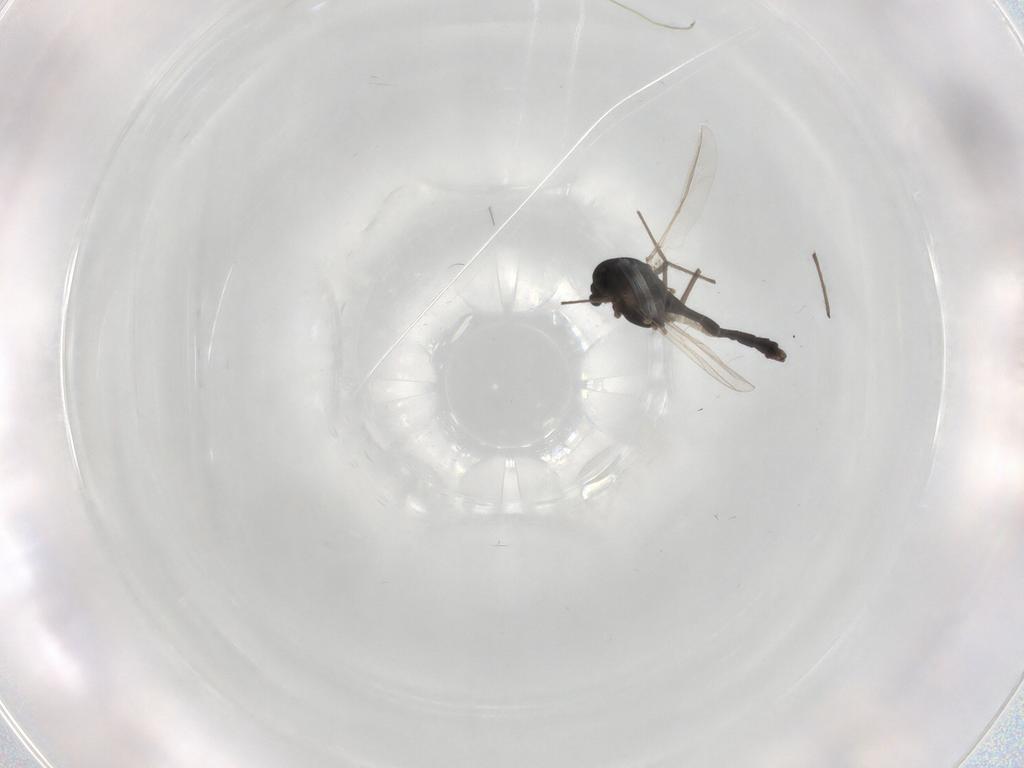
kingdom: Animalia
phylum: Arthropoda
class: Insecta
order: Diptera
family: Chironomidae
